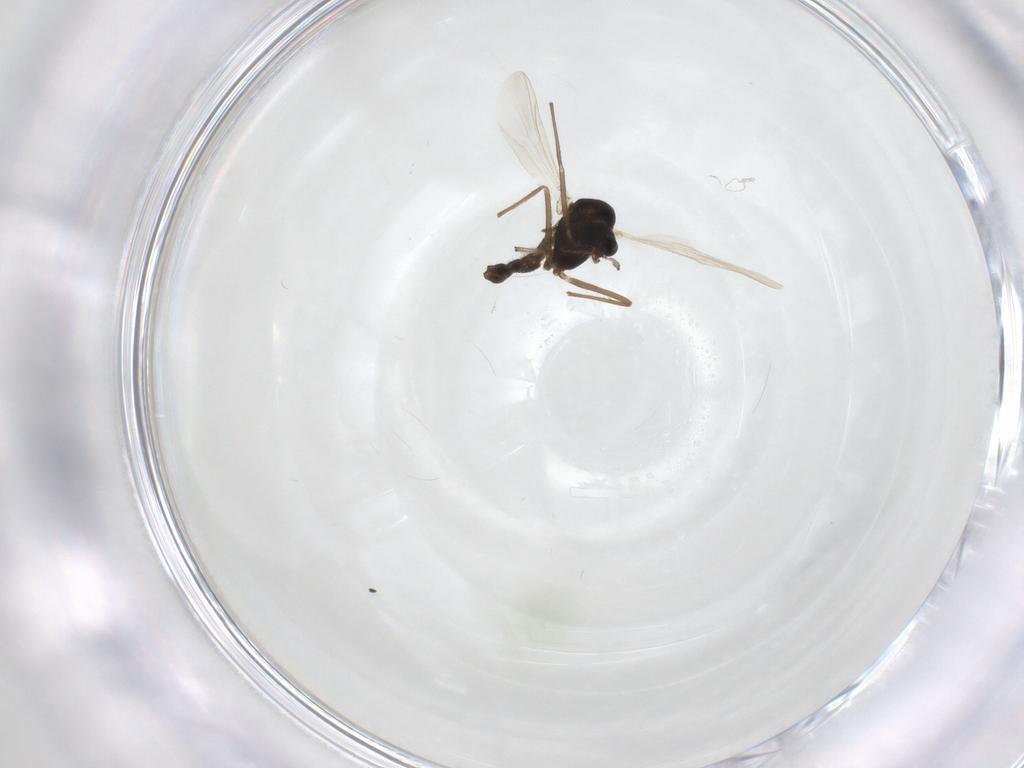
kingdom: Animalia
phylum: Arthropoda
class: Insecta
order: Diptera
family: Chironomidae
